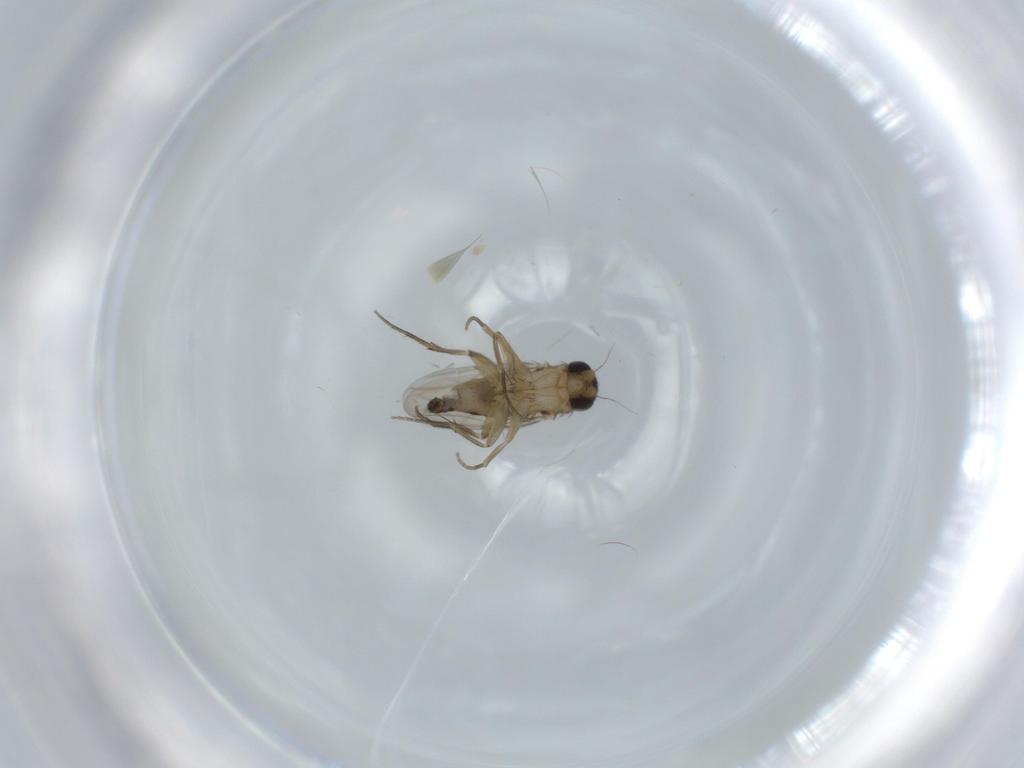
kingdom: Animalia
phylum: Arthropoda
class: Insecta
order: Diptera
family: Phoridae
